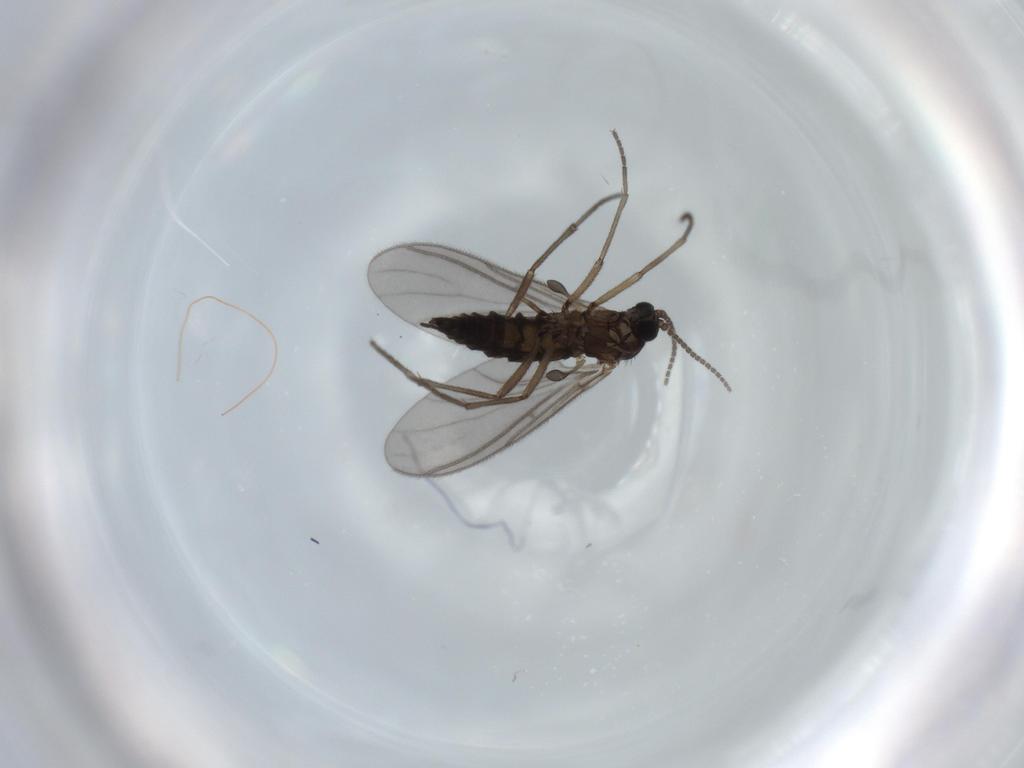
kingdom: Animalia
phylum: Arthropoda
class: Insecta
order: Diptera
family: Sciaridae
